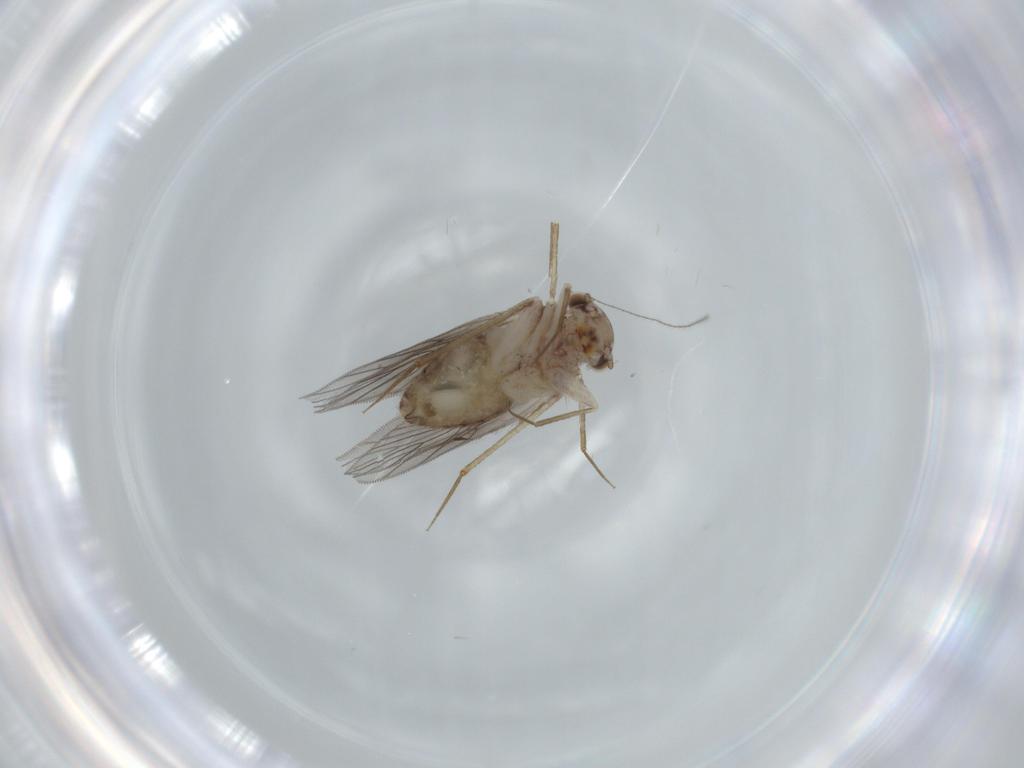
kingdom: Animalia
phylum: Arthropoda
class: Insecta
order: Psocodea
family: Lepidopsocidae
